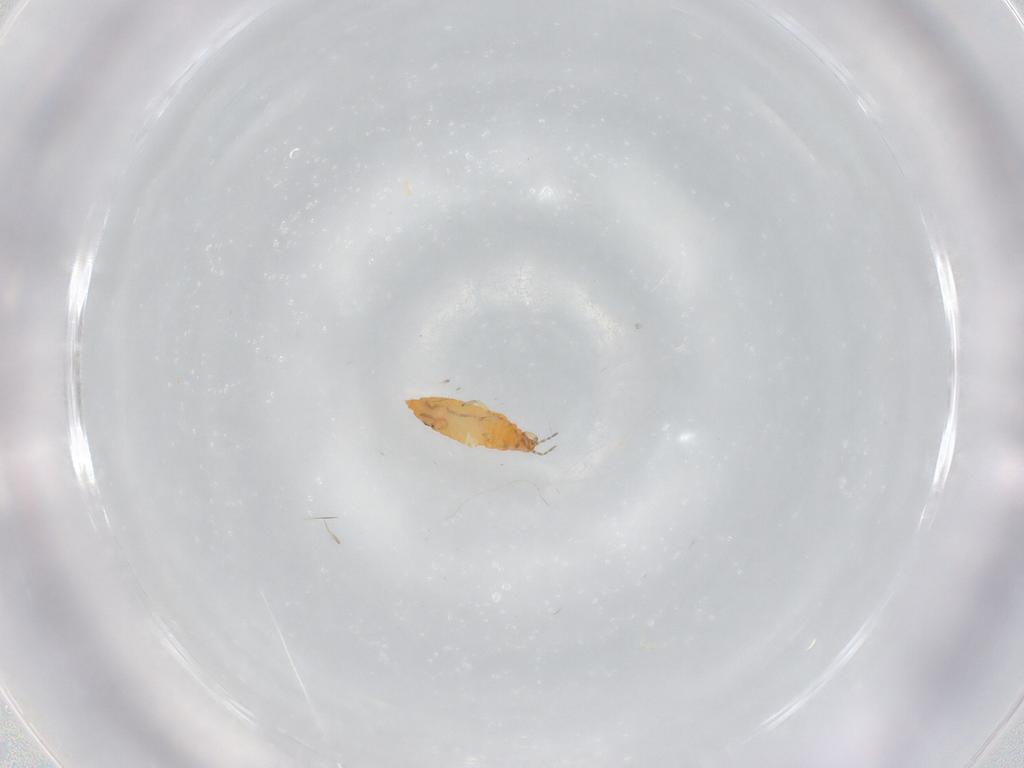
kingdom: Animalia
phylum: Arthropoda
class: Insecta
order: Thysanoptera
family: Aeolothripidae
